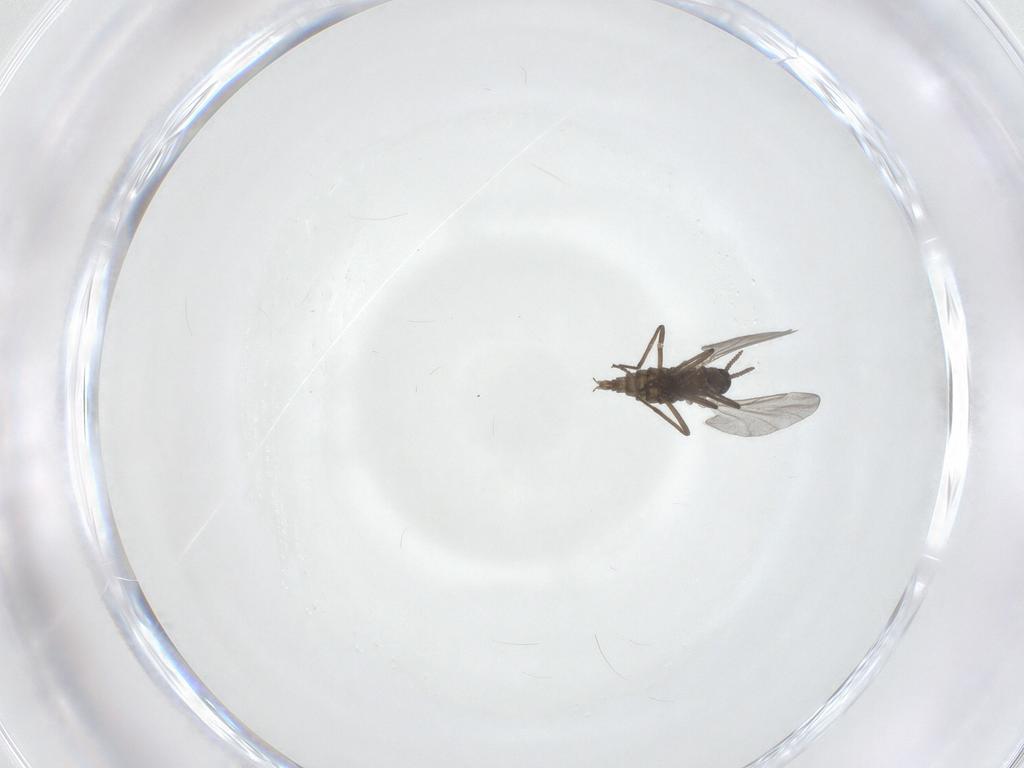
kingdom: Animalia
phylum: Arthropoda
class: Insecta
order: Diptera
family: Cecidomyiidae
